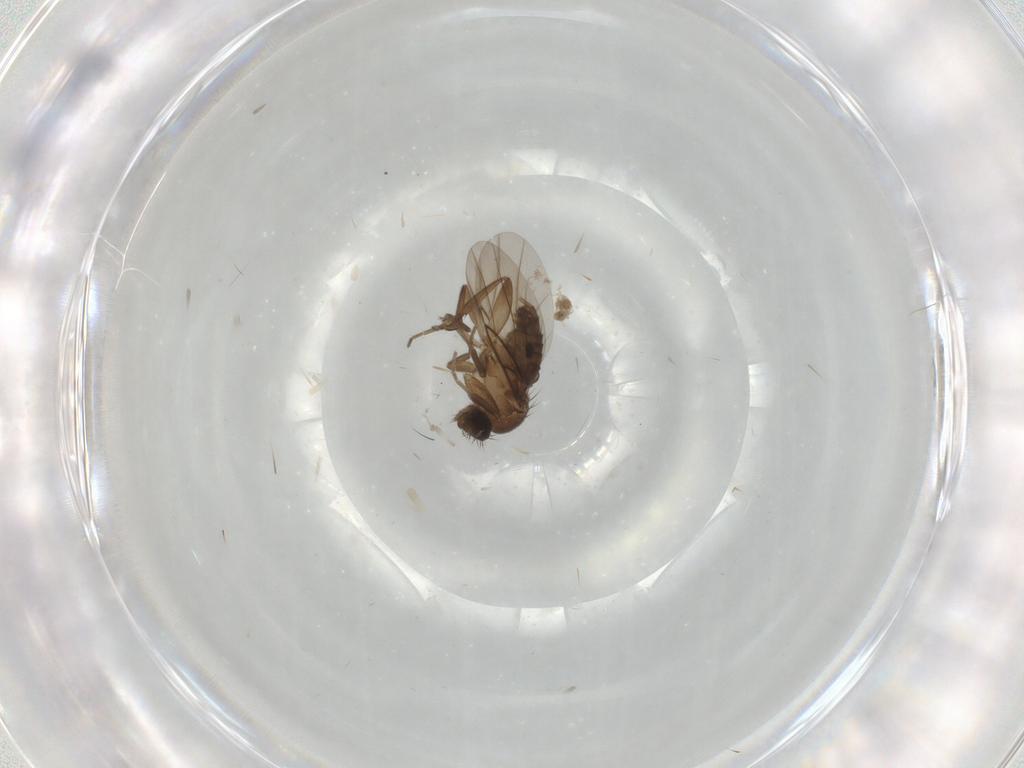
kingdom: Animalia
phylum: Arthropoda
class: Insecta
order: Diptera
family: Phoridae
